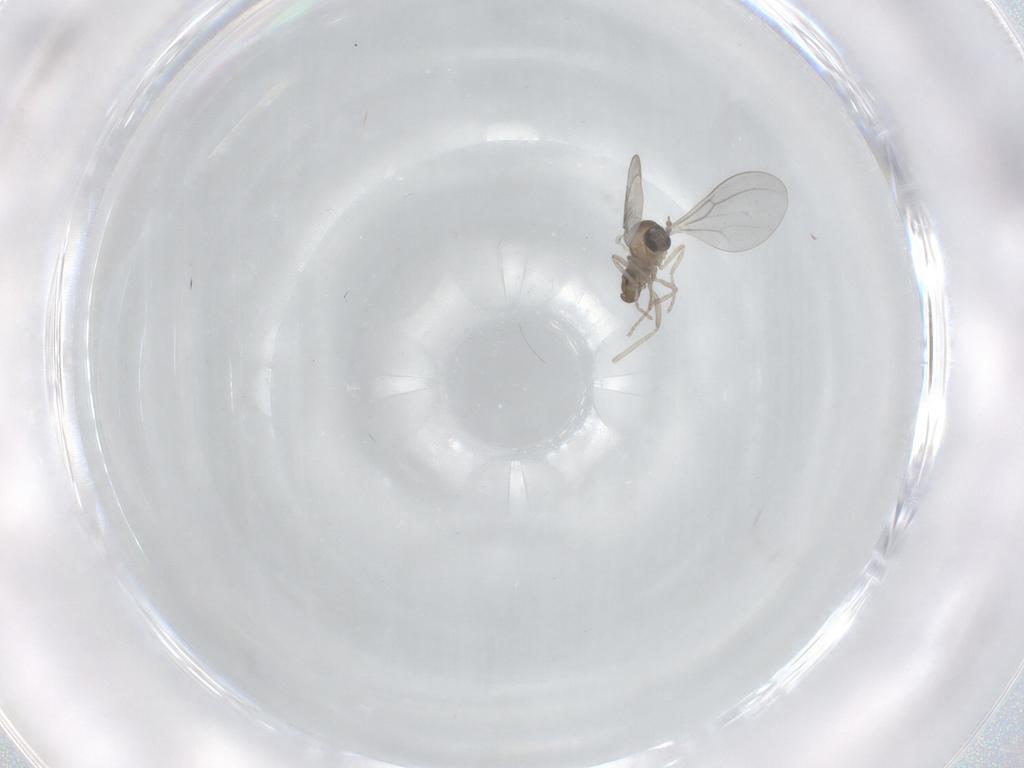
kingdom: Animalia
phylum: Arthropoda
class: Insecta
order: Diptera
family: Cecidomyiidae
